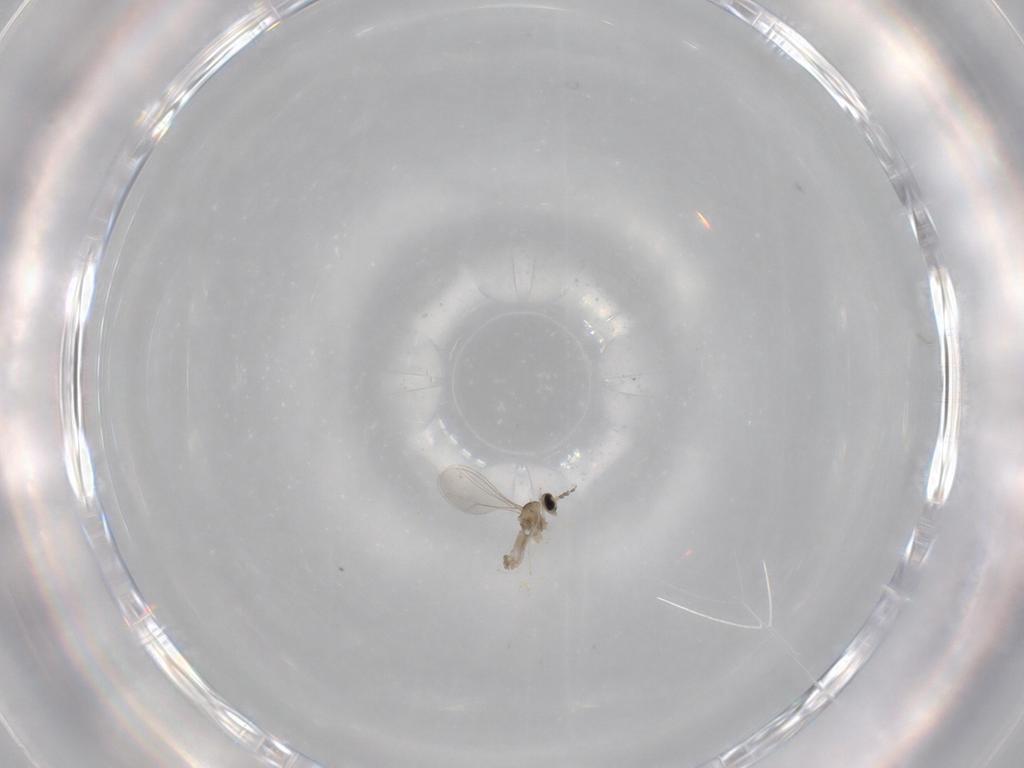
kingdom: Animalia
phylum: Arthropoda
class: Insecta
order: Diptera
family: Cecidomyiidae
